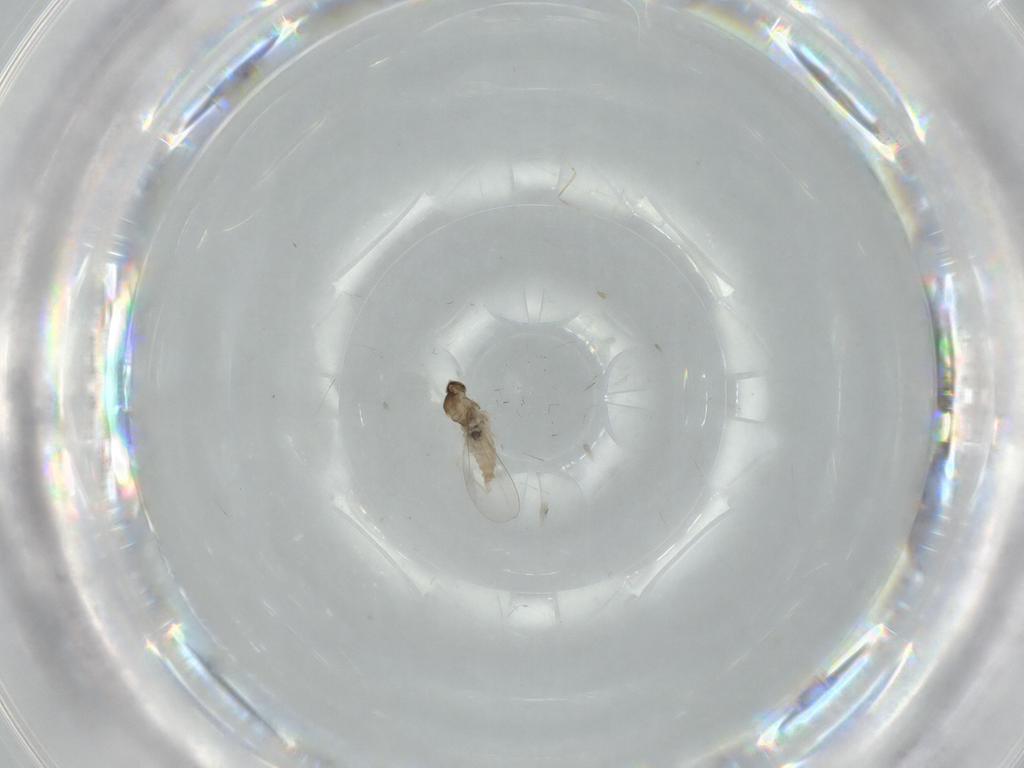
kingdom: Animalia
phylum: Arthropoda
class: Insecta
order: Diptera
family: Cecidomyiidae
